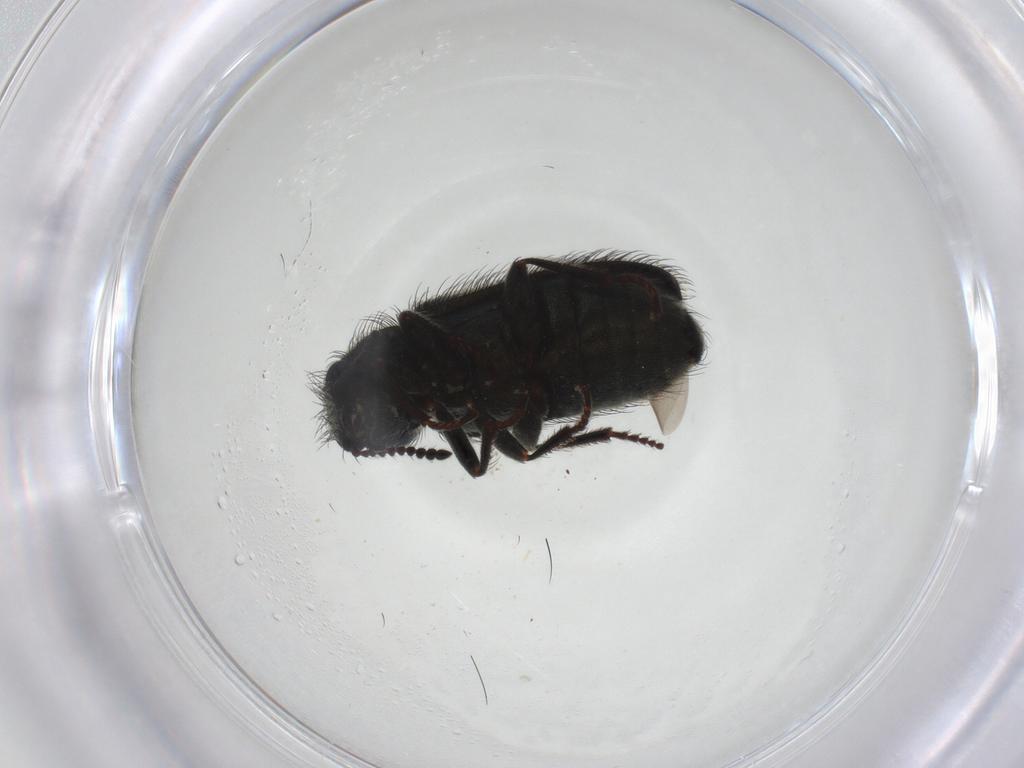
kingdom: Animalia
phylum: Arthropoda
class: Insecta
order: Coleoptera
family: Melyridae
